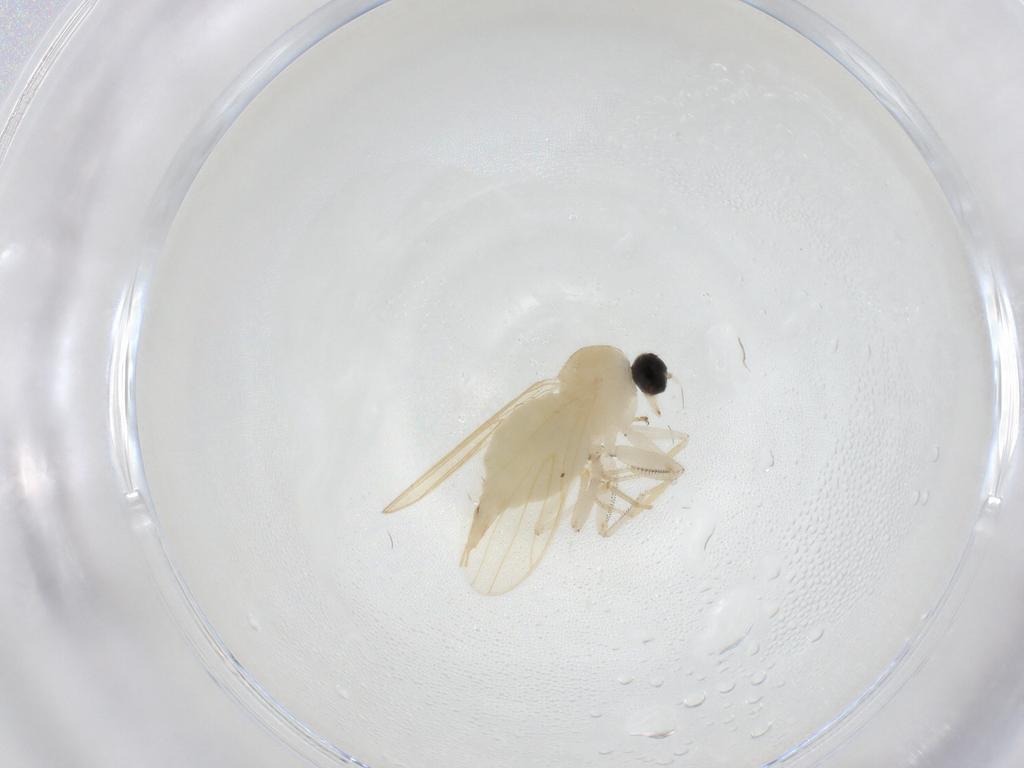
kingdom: Animalia
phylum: Arthropoda
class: Insecta
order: Diptera
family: Hybotidae
